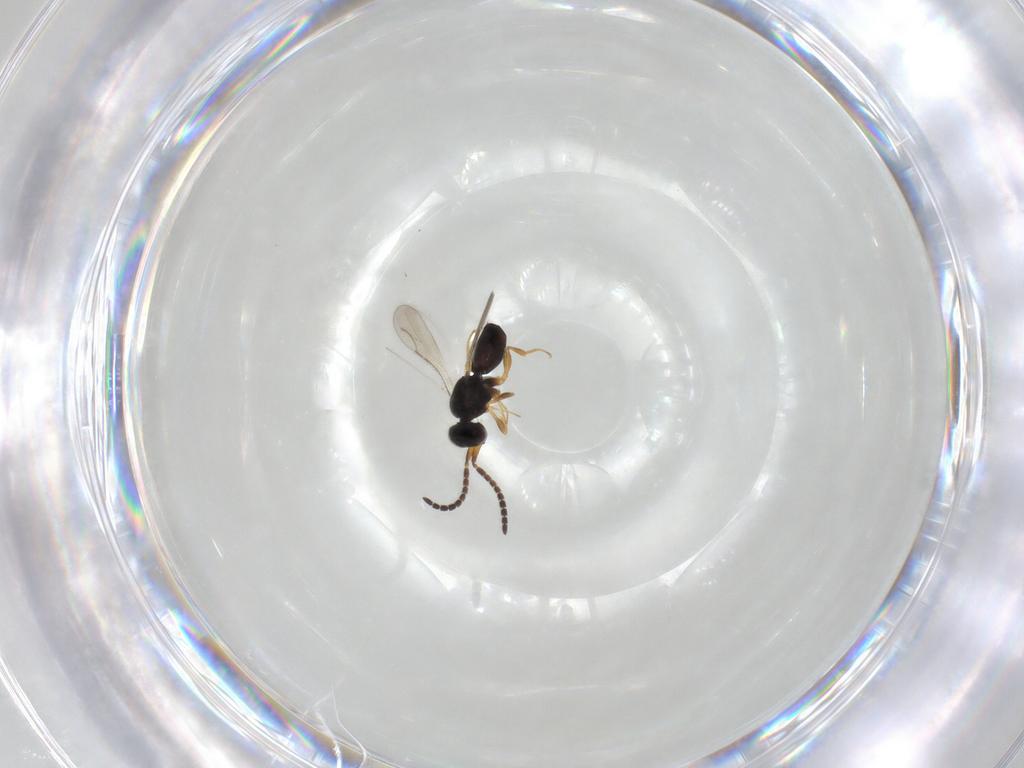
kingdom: Animalia
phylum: Arthropoda
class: Insecta
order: Hymenoptera
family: Ceraphronidae
